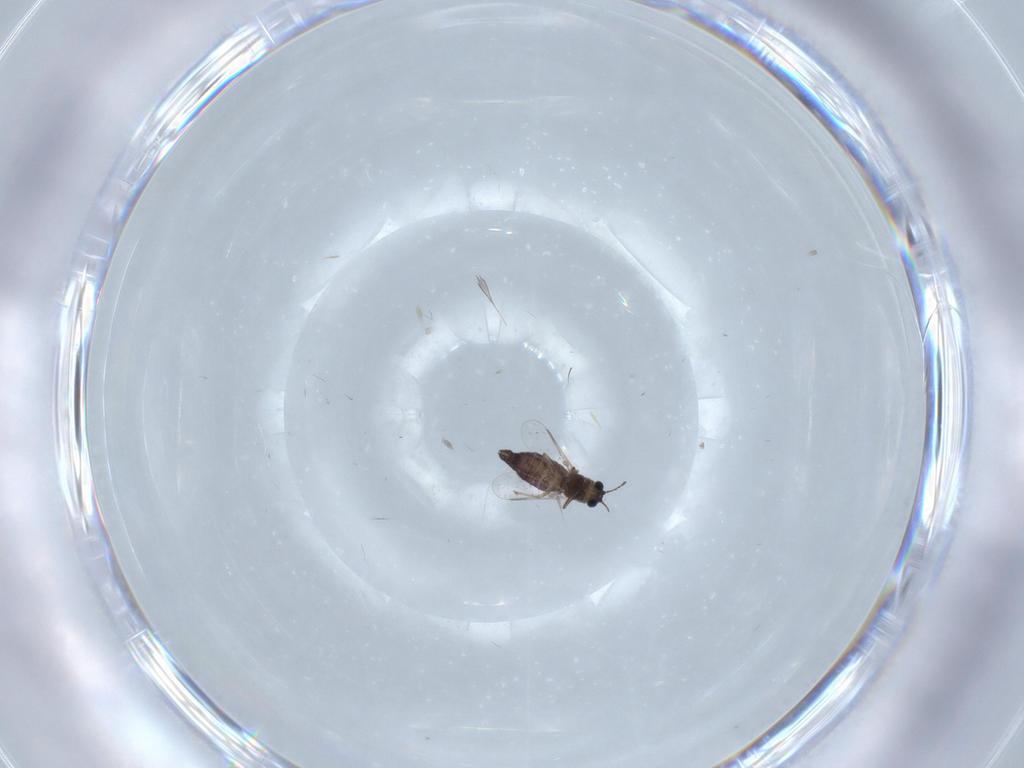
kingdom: Animalia
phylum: Arthropoda
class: Insecta
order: Diptera
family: Chironomidae
